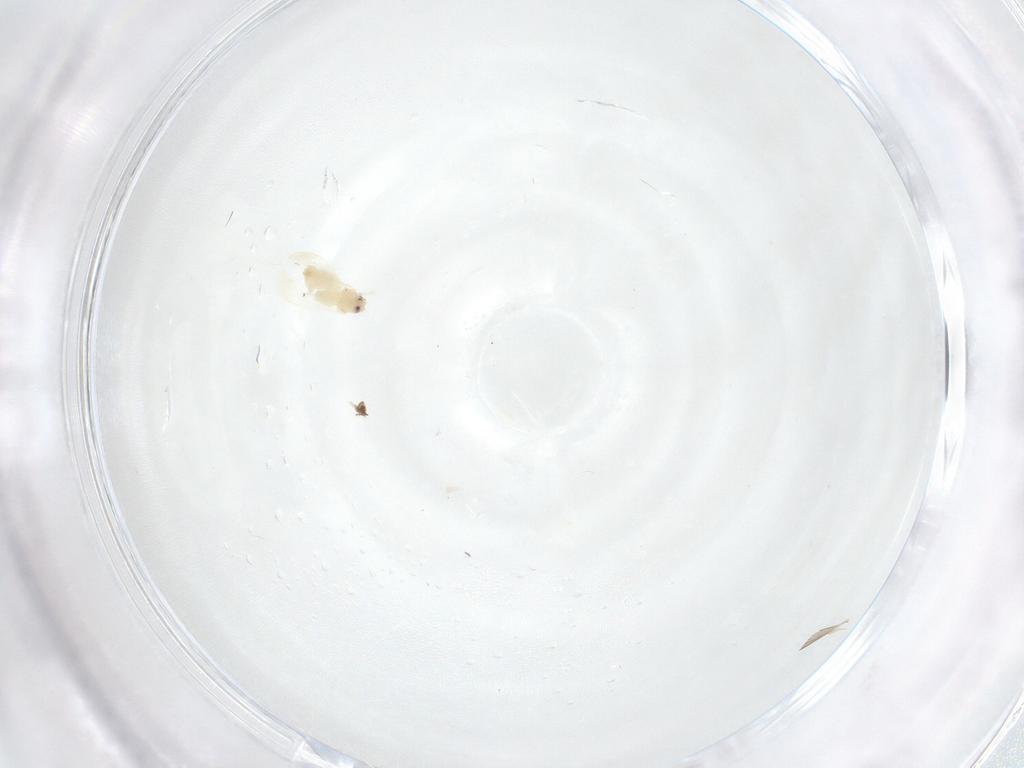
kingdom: Animalia
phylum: Arthropoda
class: Insecta
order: Hemiptera
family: Aleyrodidae
